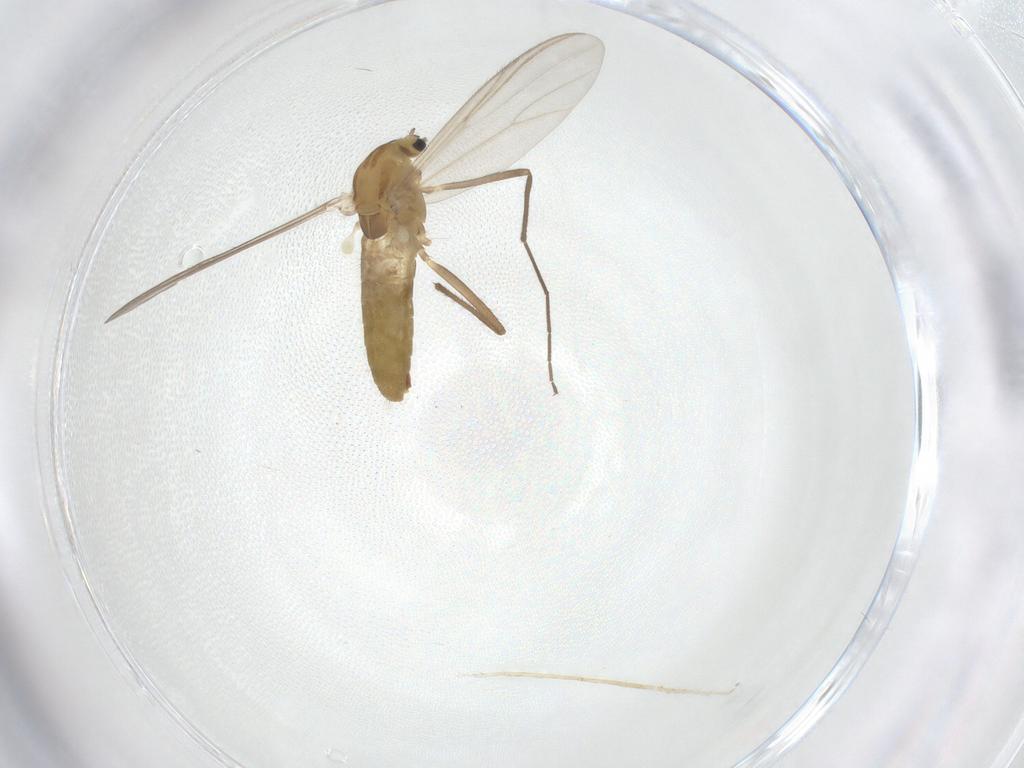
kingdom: Animalia
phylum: Arthropoda
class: Insecta
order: Diptera
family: Chironomidae
